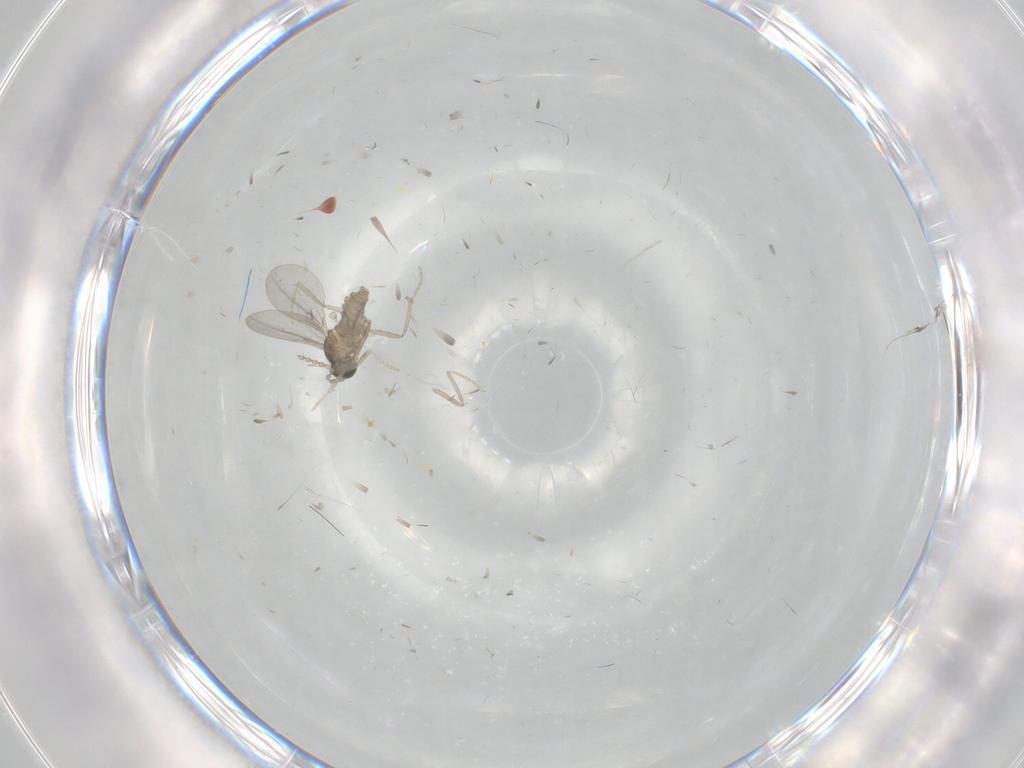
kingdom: Animalia
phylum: Arthropoda
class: Insecta
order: Diptera
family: Cecidomyiidae
